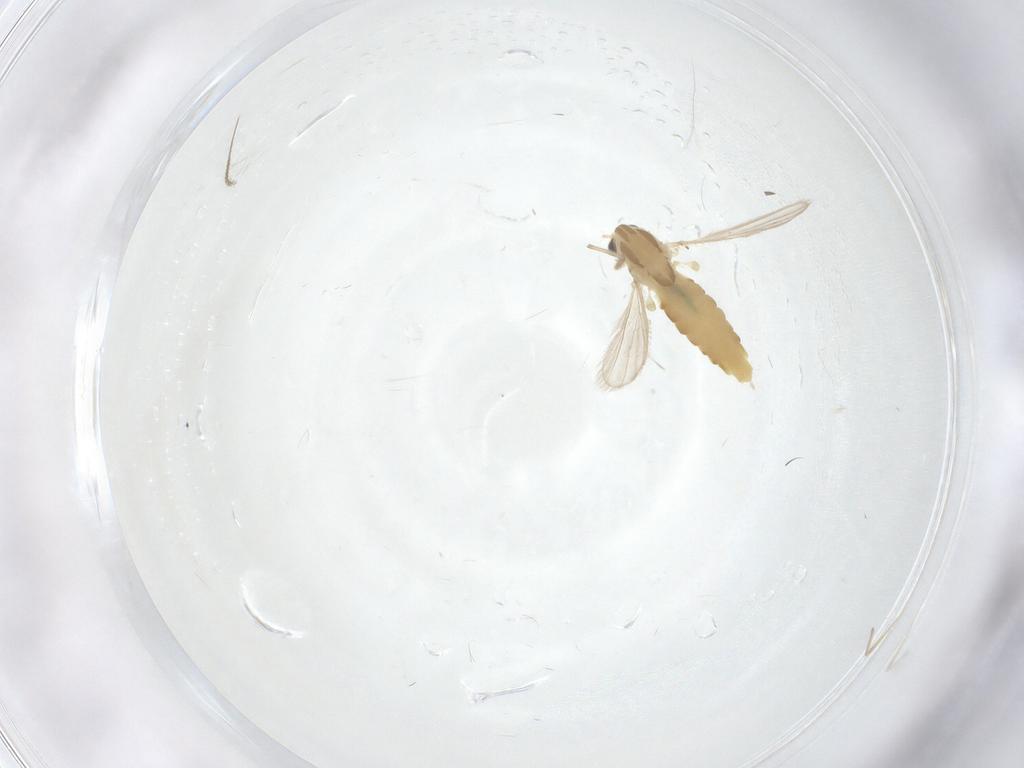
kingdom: Animalia
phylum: Arthropoda
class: Insecta
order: Diptera
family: Chironomidae
